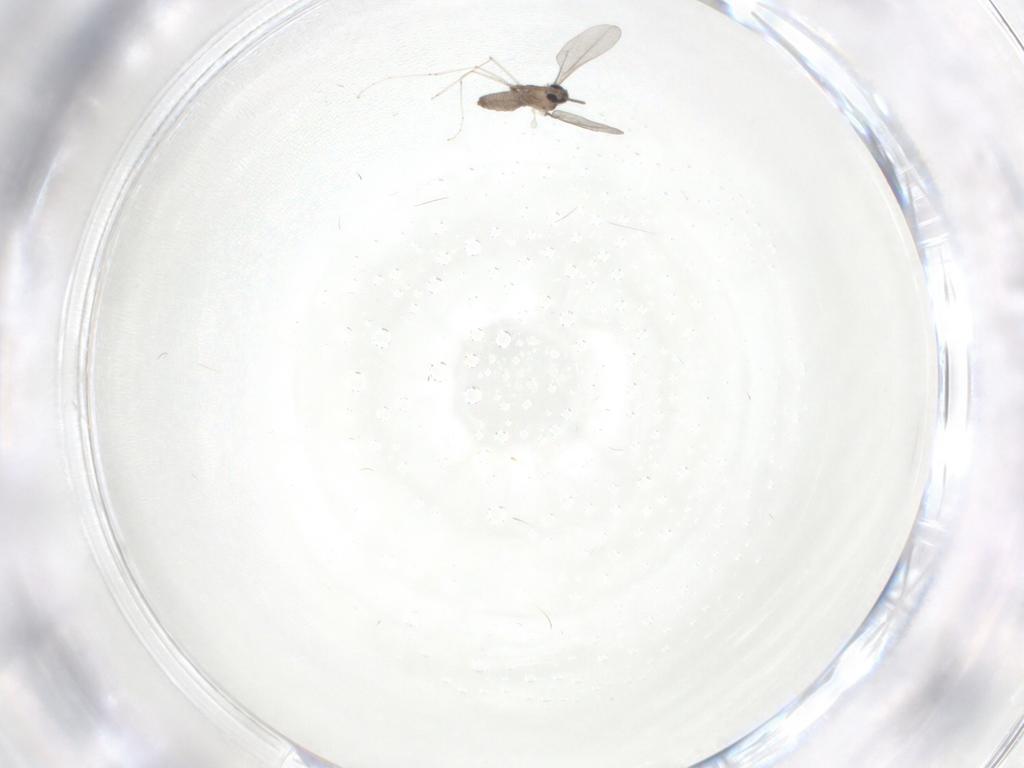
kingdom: Animalia
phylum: Arthropoda
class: Insecta
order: Diptera
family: Cecidomyiidae
